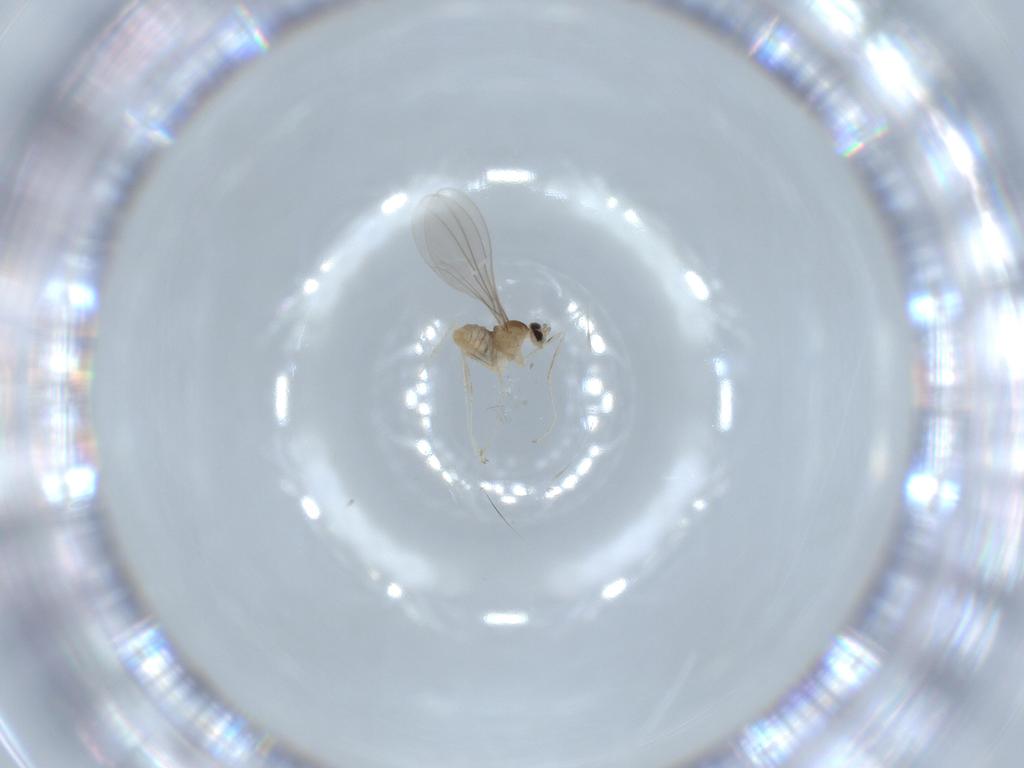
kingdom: Animalia
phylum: Arthropoda
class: Insecta
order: Diptera
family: Cecidomyiidae
